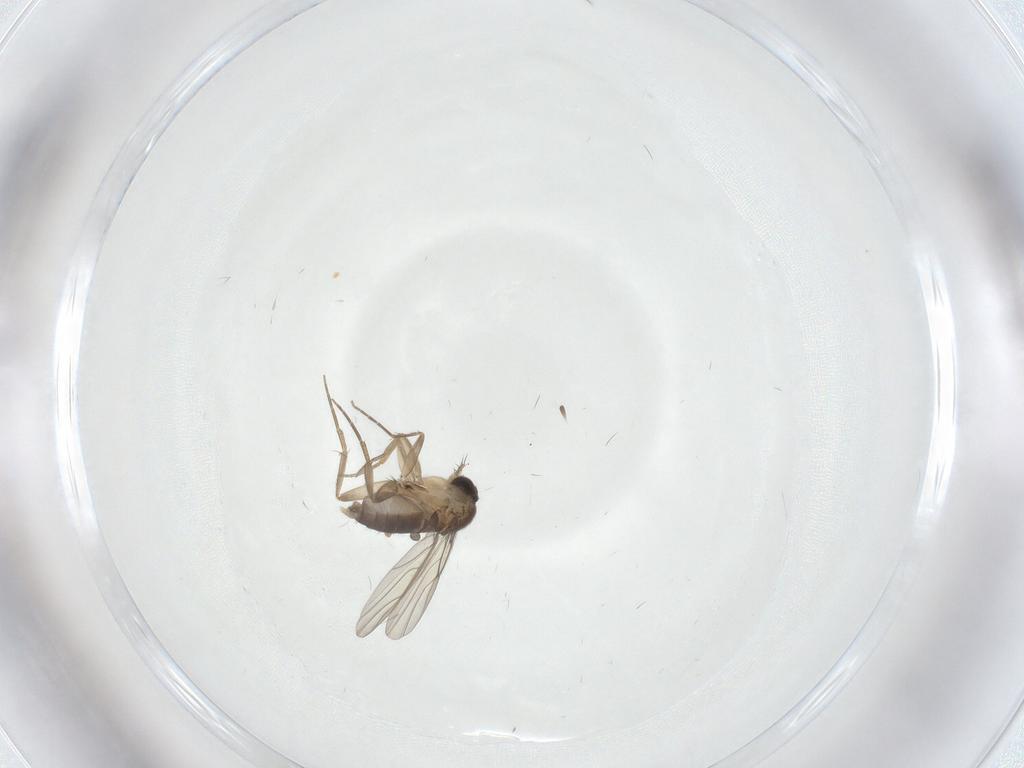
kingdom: Animalia
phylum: Arthropoda
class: Insecta
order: Diptera
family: Phoridae
